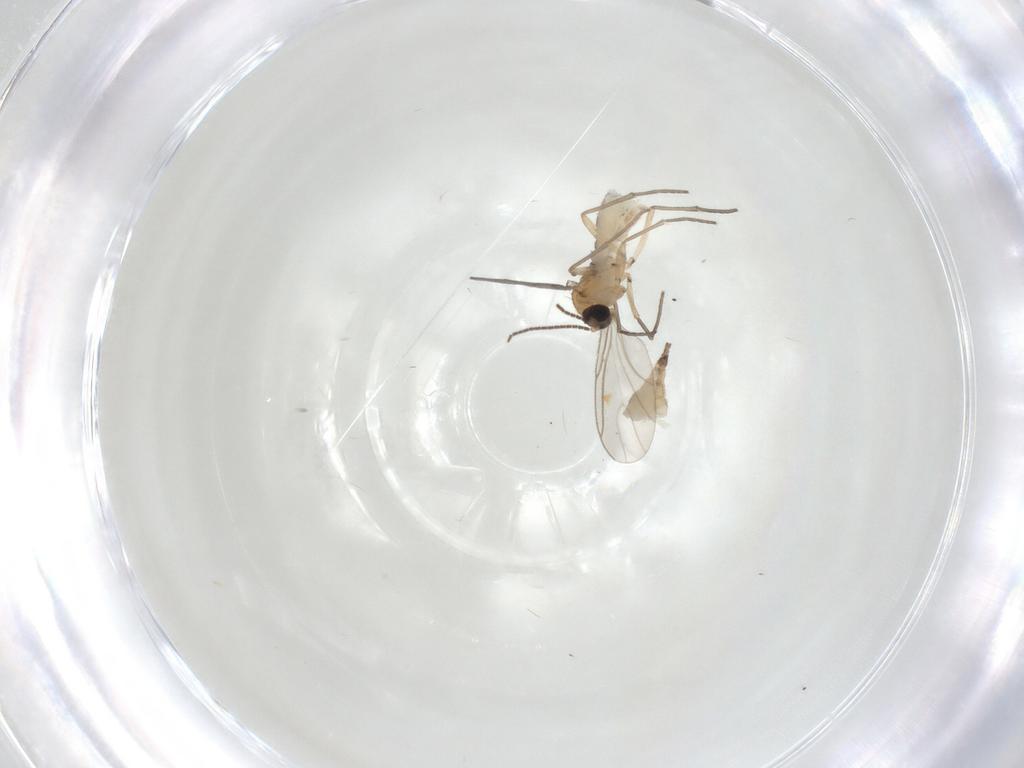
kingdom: Animalia
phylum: Arthropoda
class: Insecta
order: Diptera
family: Sciaridae
